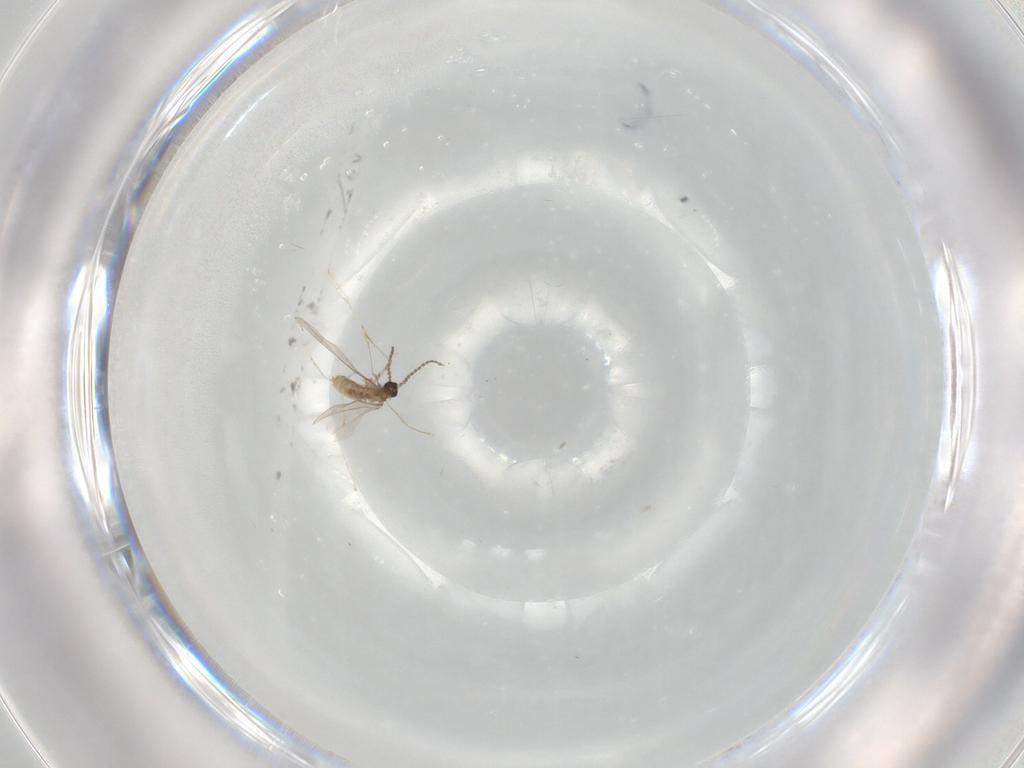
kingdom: Animalia
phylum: Arthropoda
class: Insecta
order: Diptera
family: Cecidomyiidae
